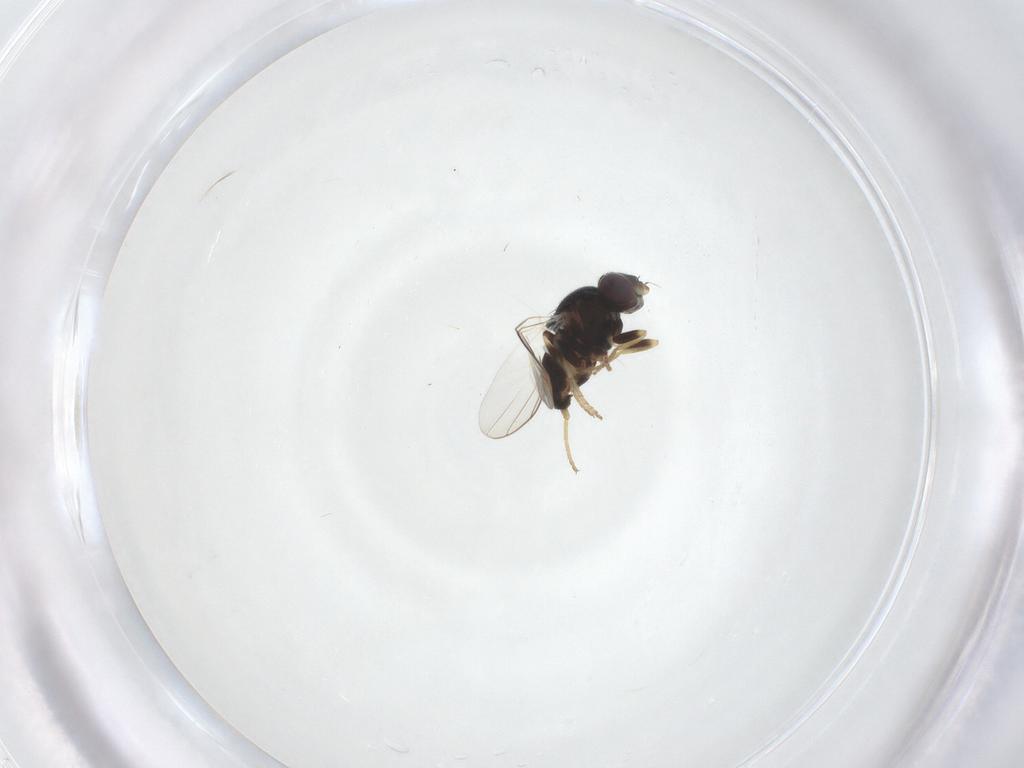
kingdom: Animalia
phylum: Arthropoda
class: Insecta
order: Diptera
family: Chloropidae
